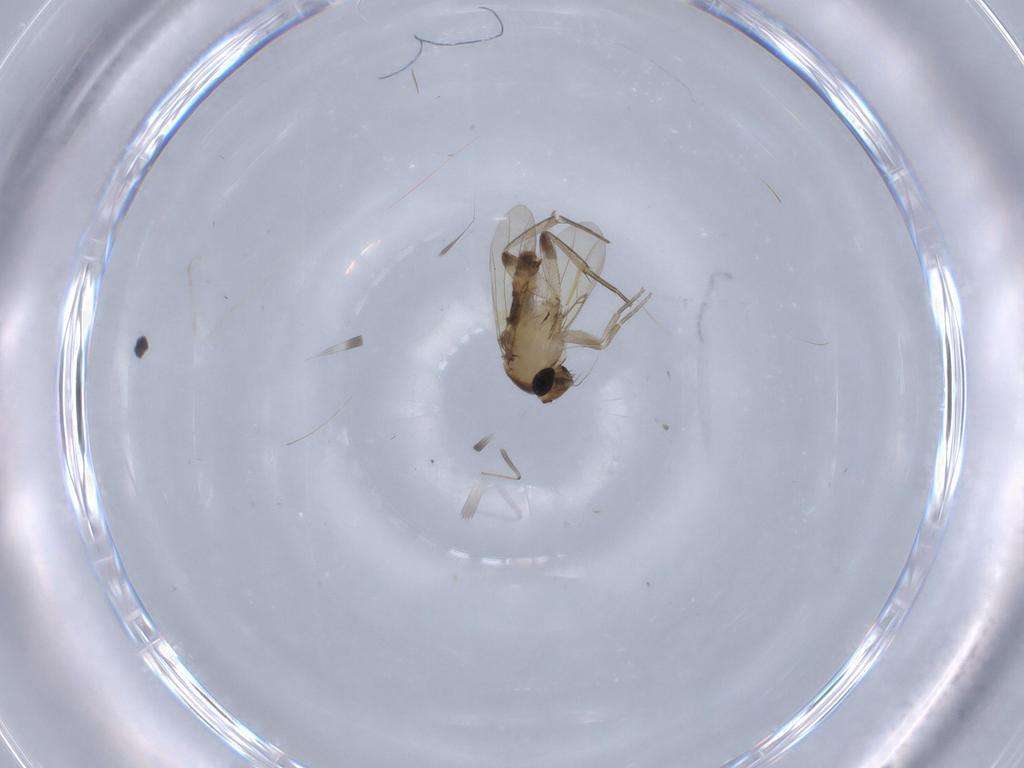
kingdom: Animalia
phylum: Arthropoda
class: Insecta
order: Diptera
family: Phoridae
